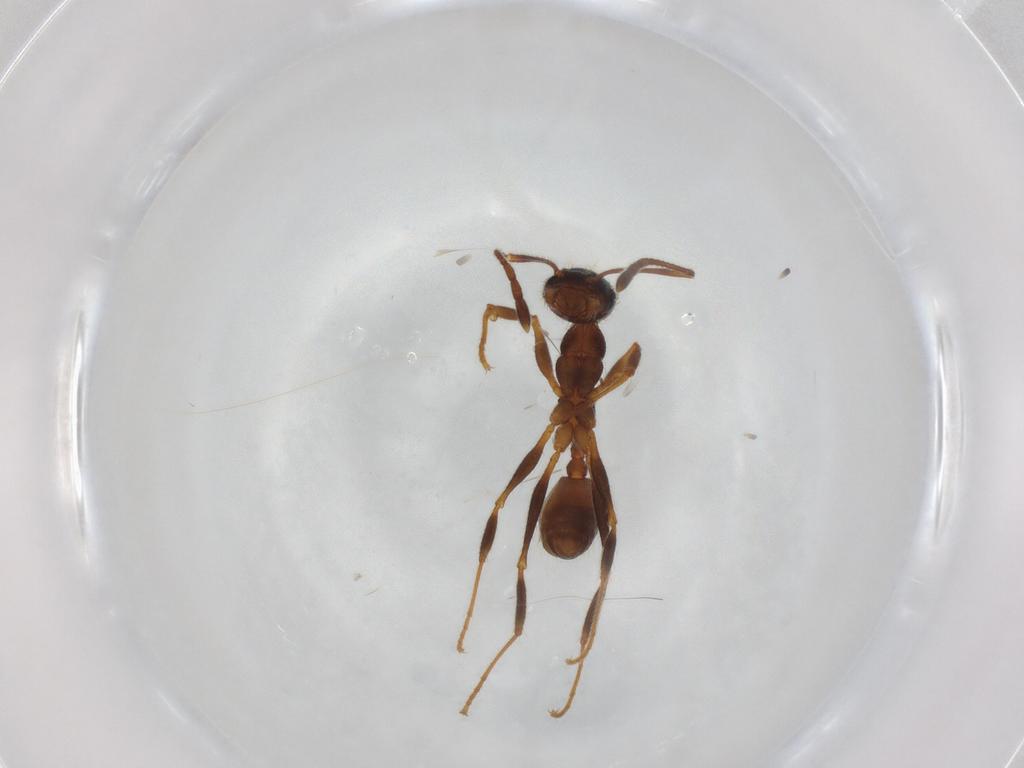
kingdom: Animalia
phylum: Arthropoda
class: Insecta
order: Hymenoptera
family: Formicidae
